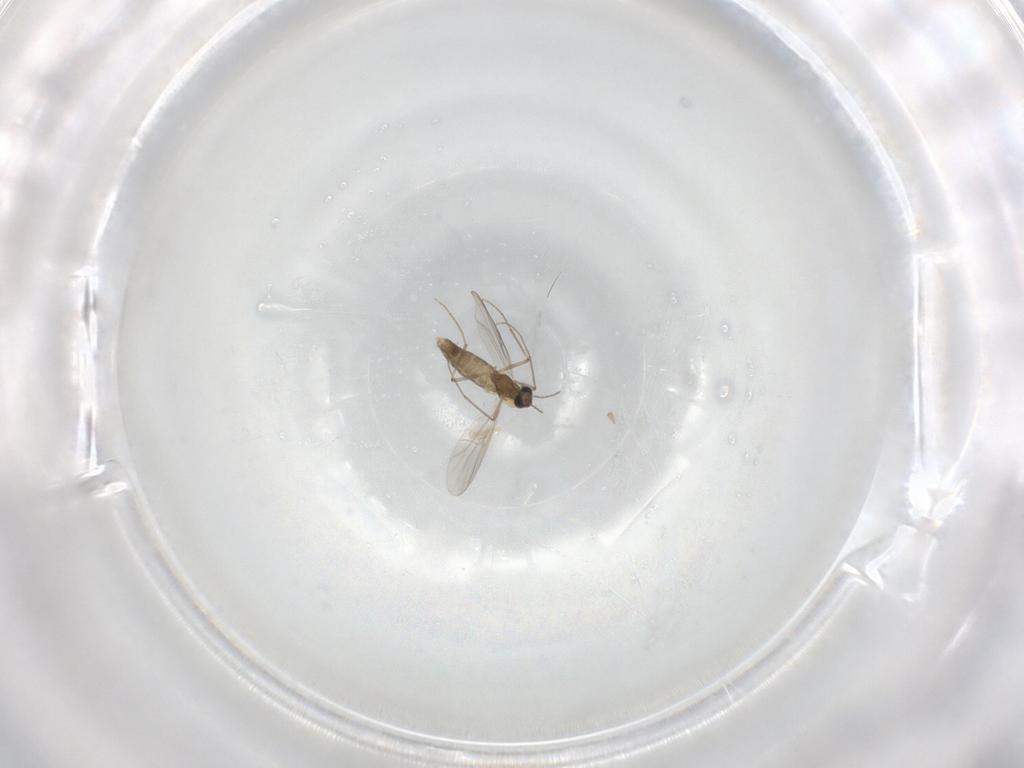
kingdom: Animalia
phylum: Arthropoda
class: Insecta
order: Diptera
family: Chironomidae
